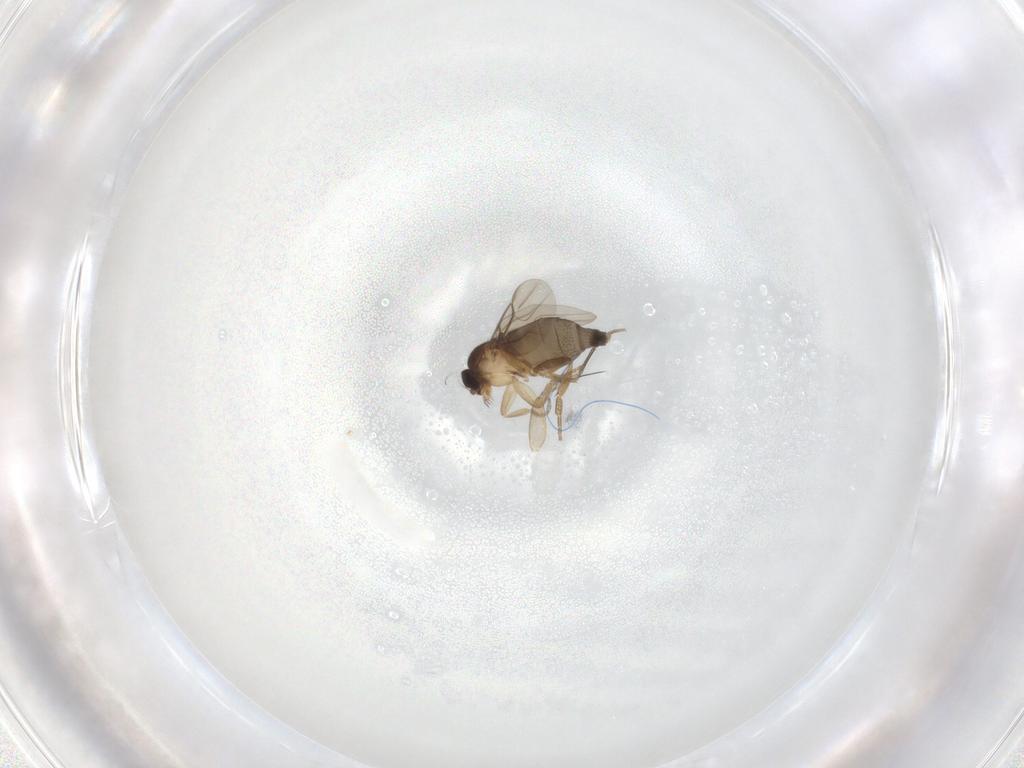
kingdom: Animalia
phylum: Arthropoda
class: Insecta
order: Diptera
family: Phoridae
